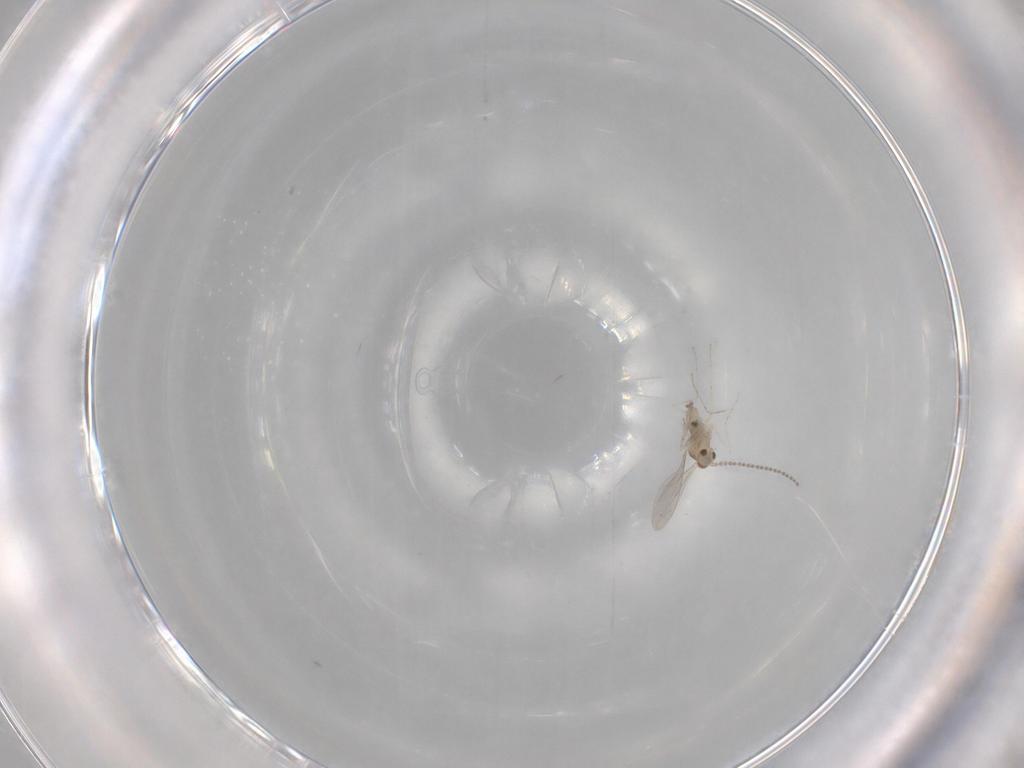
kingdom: Animalia
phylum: Arthropoda
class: Insecta
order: Diptera
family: Cecidomyiidae
